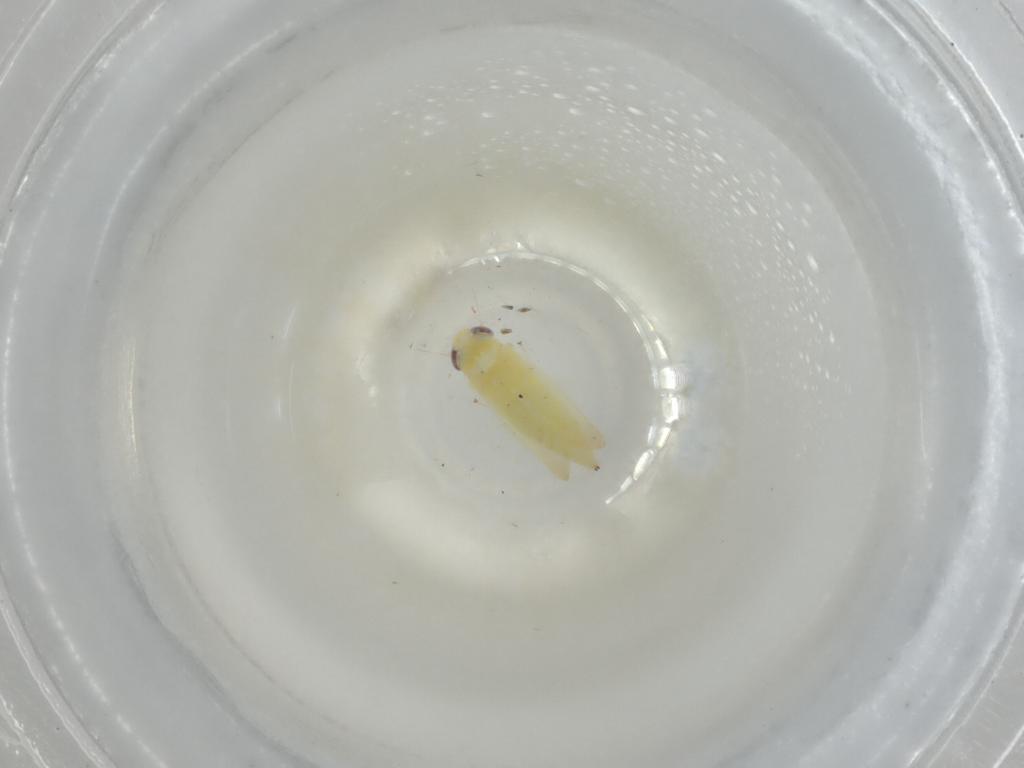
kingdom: Animalia
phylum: Arthropoda
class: Insecta
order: Hemiptera
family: Cicadellidae
